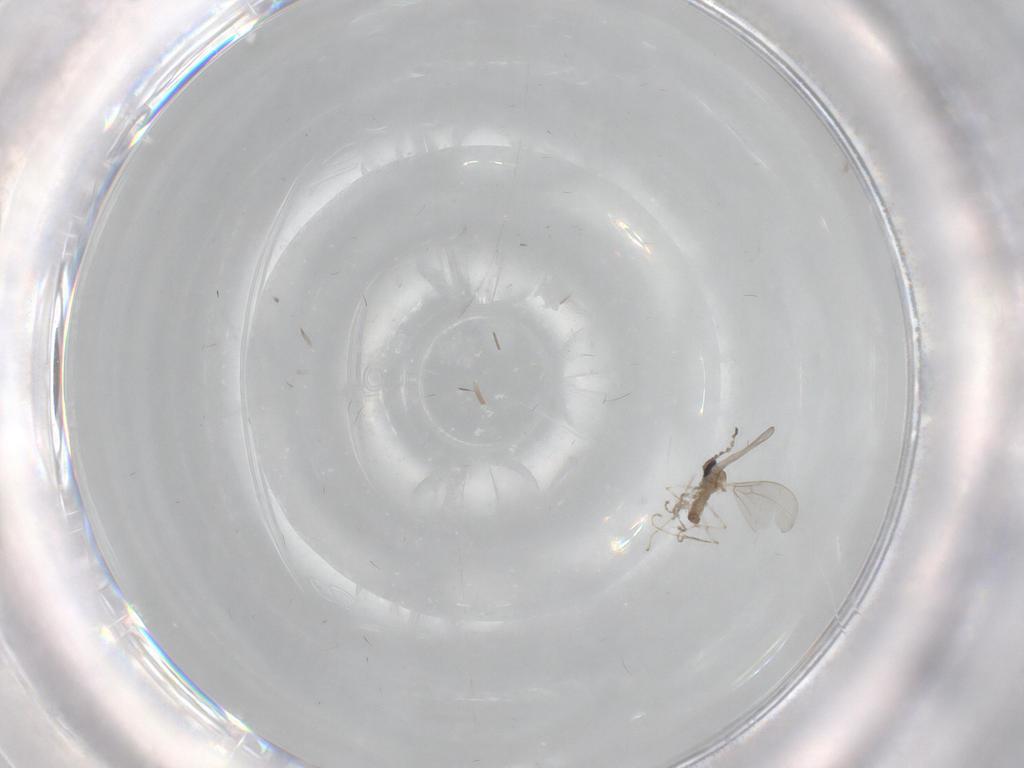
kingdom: Animalia
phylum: Arthropoda
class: Insecta
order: Diptera
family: Cecidomyiidae
